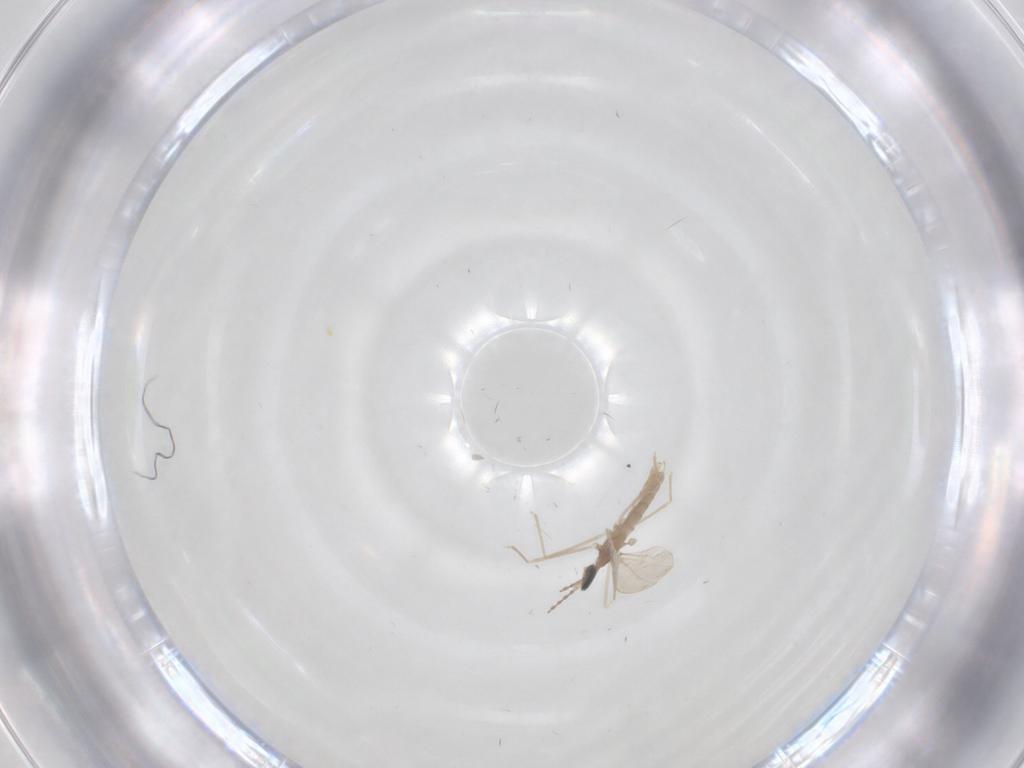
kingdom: Animalia
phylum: Arthropoda
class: Insecta
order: Diptera
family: Cecidomyiidae
